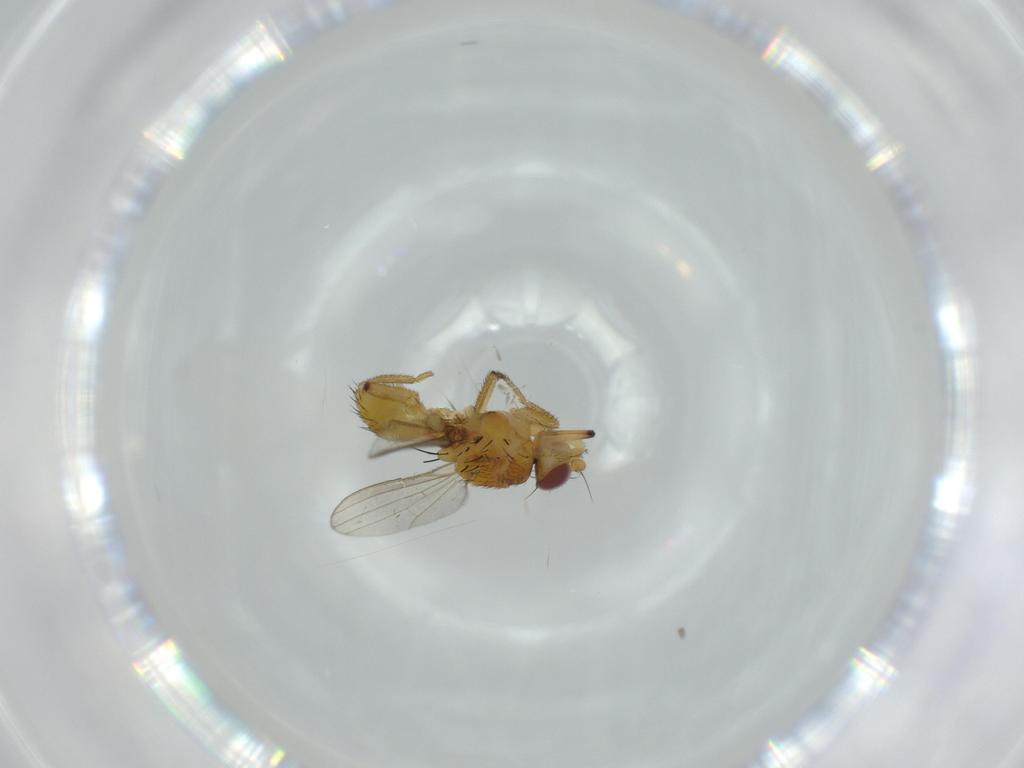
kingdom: Animalia
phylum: Arthropoda
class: Insecta
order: Diptera
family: Milichiidae
